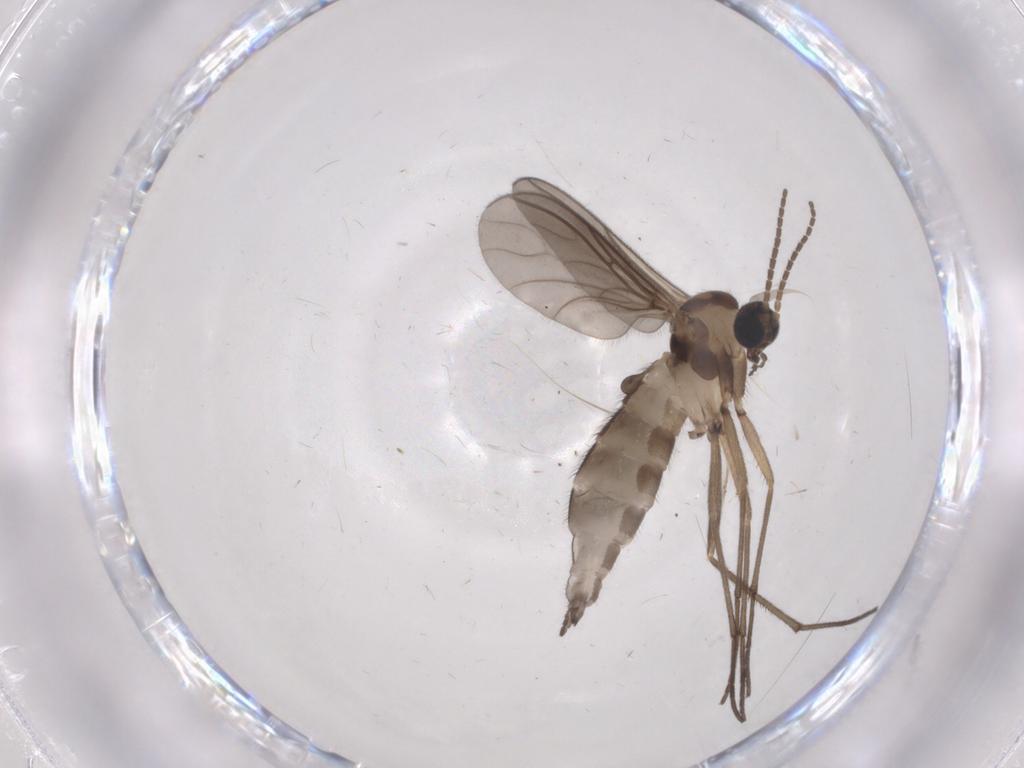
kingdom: Animalia
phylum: Arthropoda
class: Insecta
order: Diptera
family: Sciaridae
